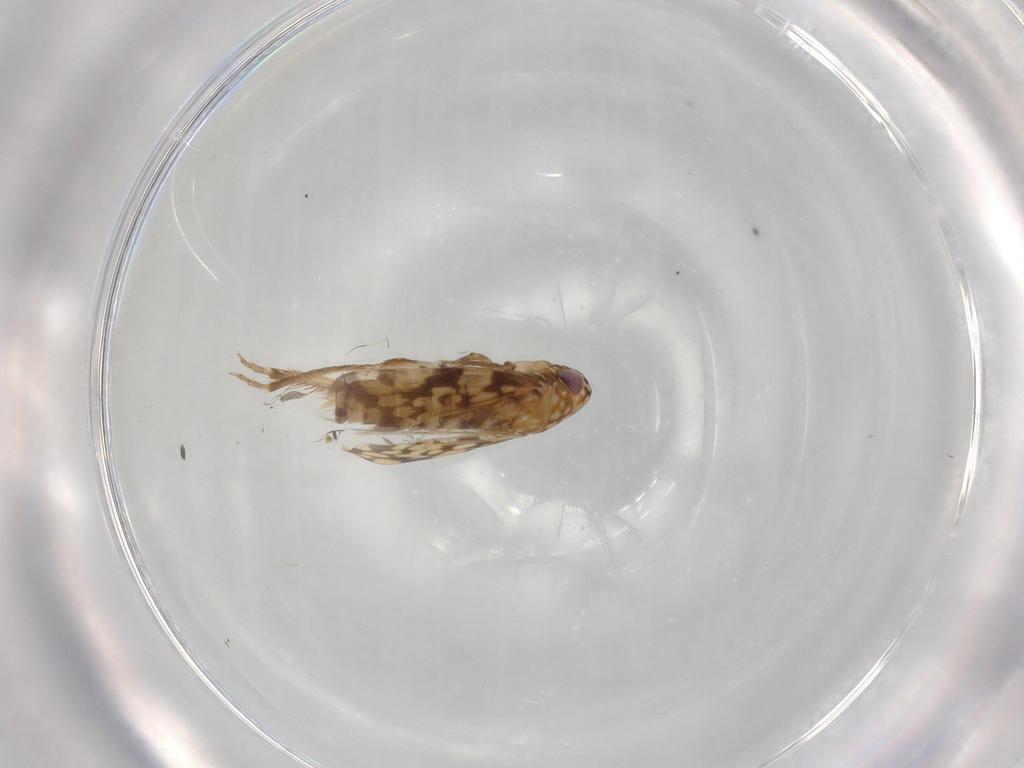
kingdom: Animalia
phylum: Arthropoda
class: Insecta
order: Hemiptera
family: Cicadellidae
